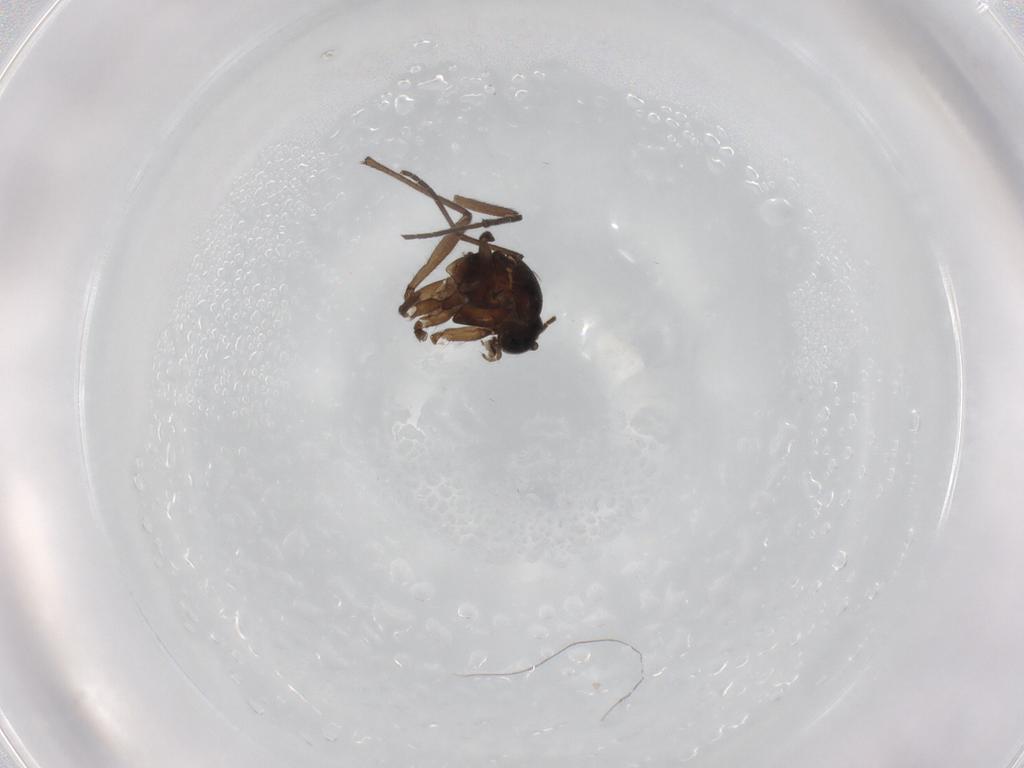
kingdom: Animalia
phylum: Arthropoda
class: Insecta
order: Diptera
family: Sciaridae
